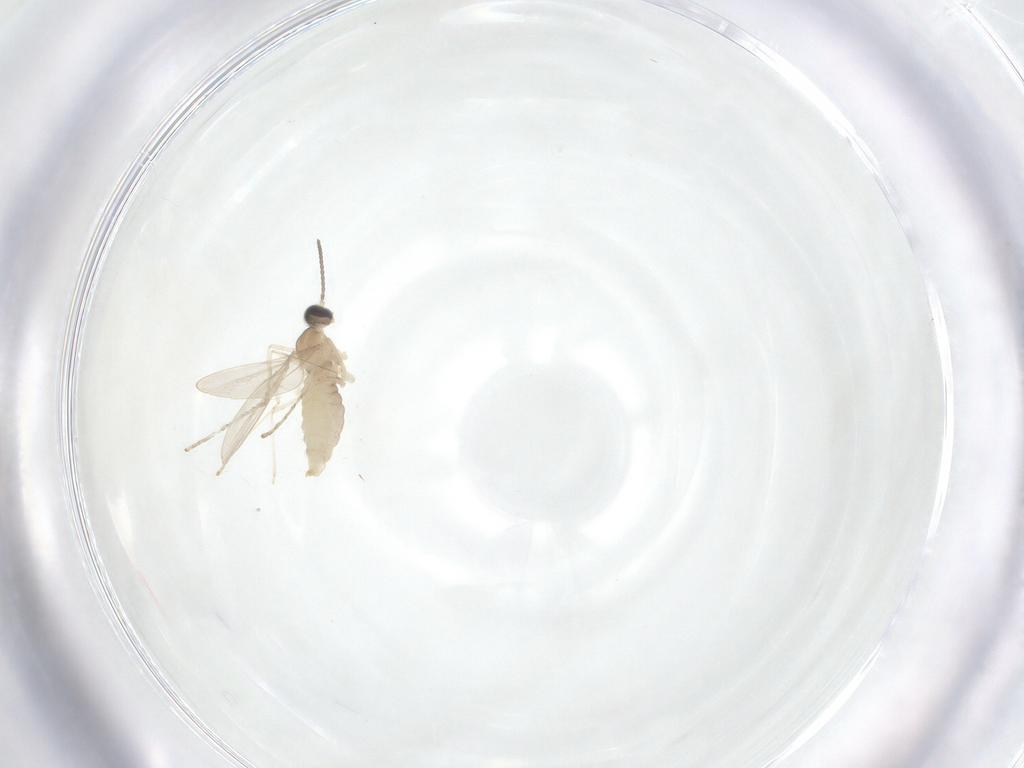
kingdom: Animalia
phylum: Arthropoda
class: Insecta
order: Diptera
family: Cecidomyiidae
